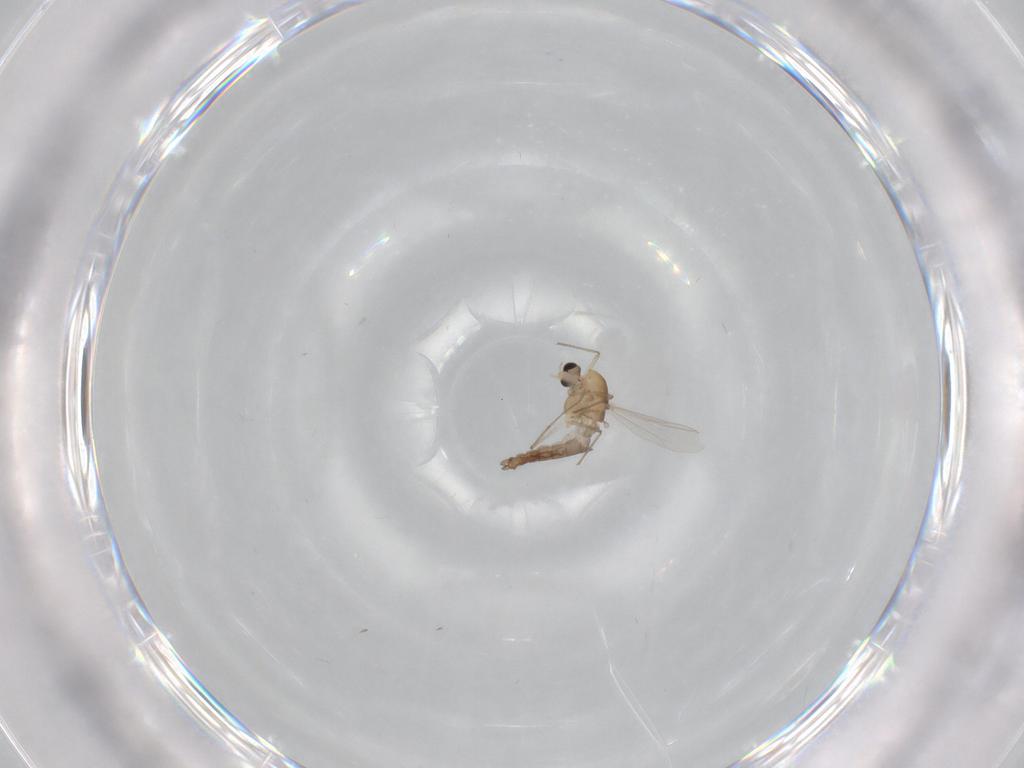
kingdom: Animalia
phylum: Arthropoda
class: Insecta
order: Diptera
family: Chironomidae
